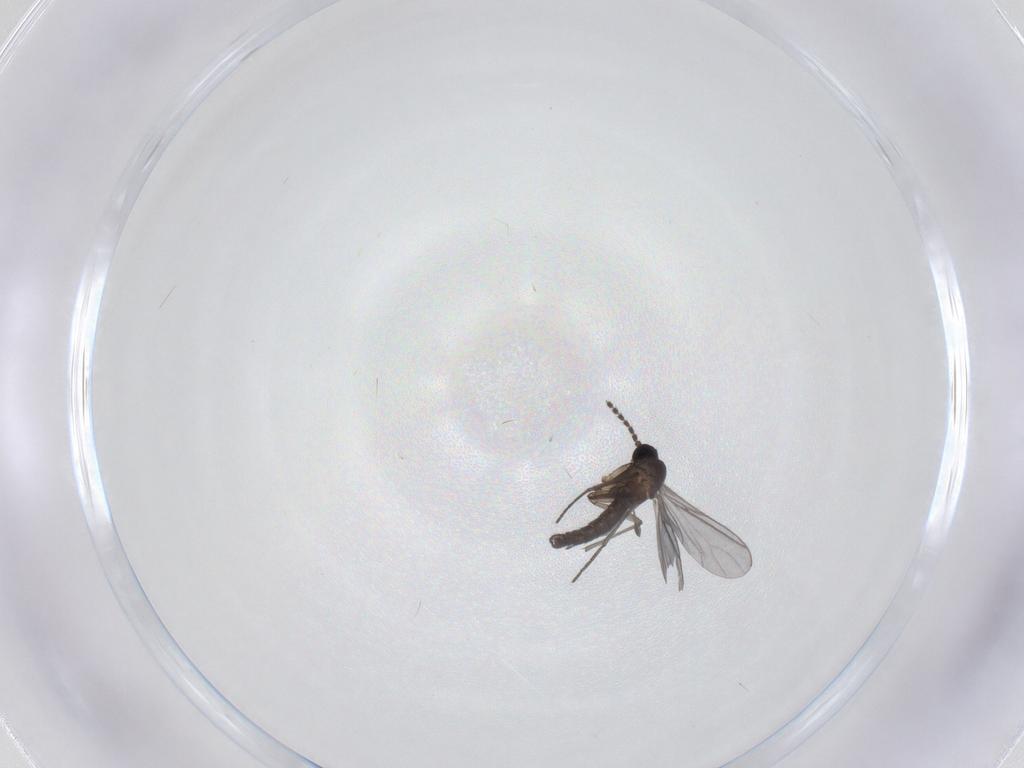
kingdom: Animalia
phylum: Arthropoda
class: Insecta
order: Diptera
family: Sciaridae
